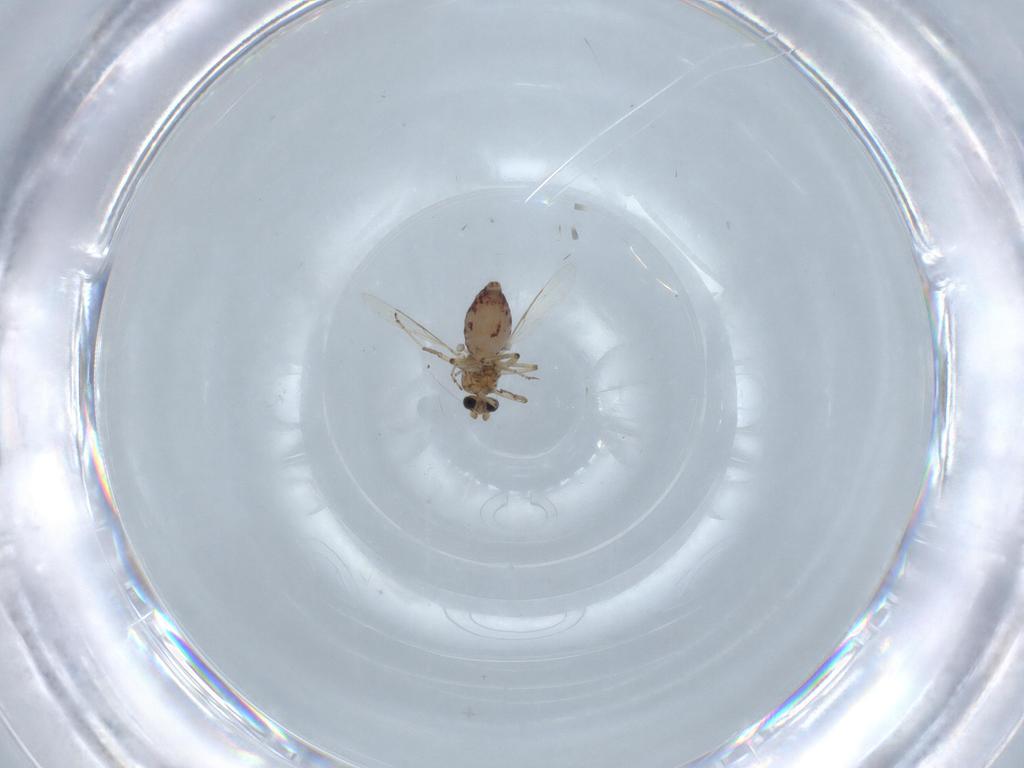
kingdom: Animalia
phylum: Arthropoda
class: Insecta
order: Diptera
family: Ceratopogonidae
